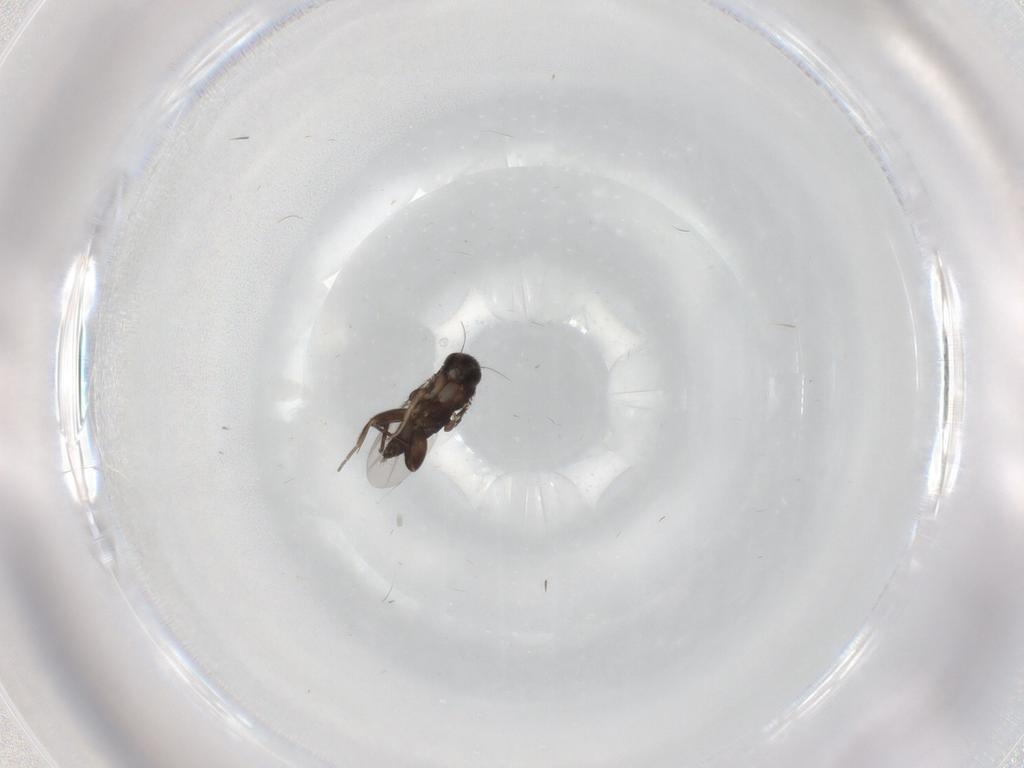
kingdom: Animalia
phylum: Arthropoda
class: Insecta
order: Diptera
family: Phoridae
